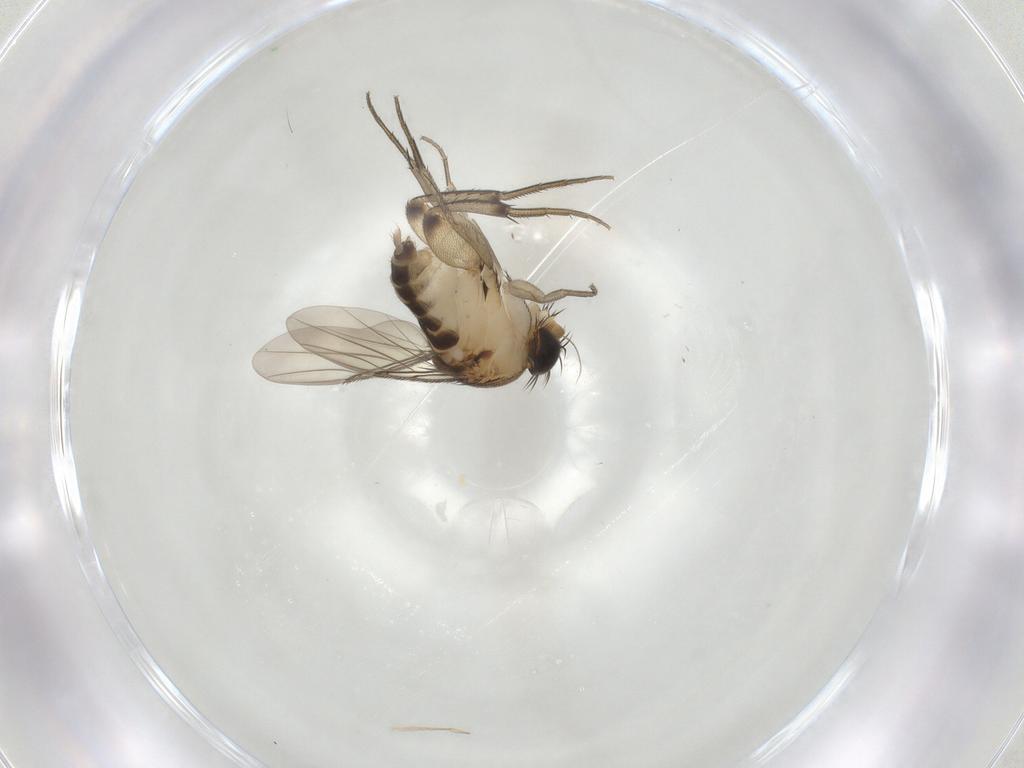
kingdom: Animalia
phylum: Arthropoda
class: Insecta
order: Diptera
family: Phoridae
